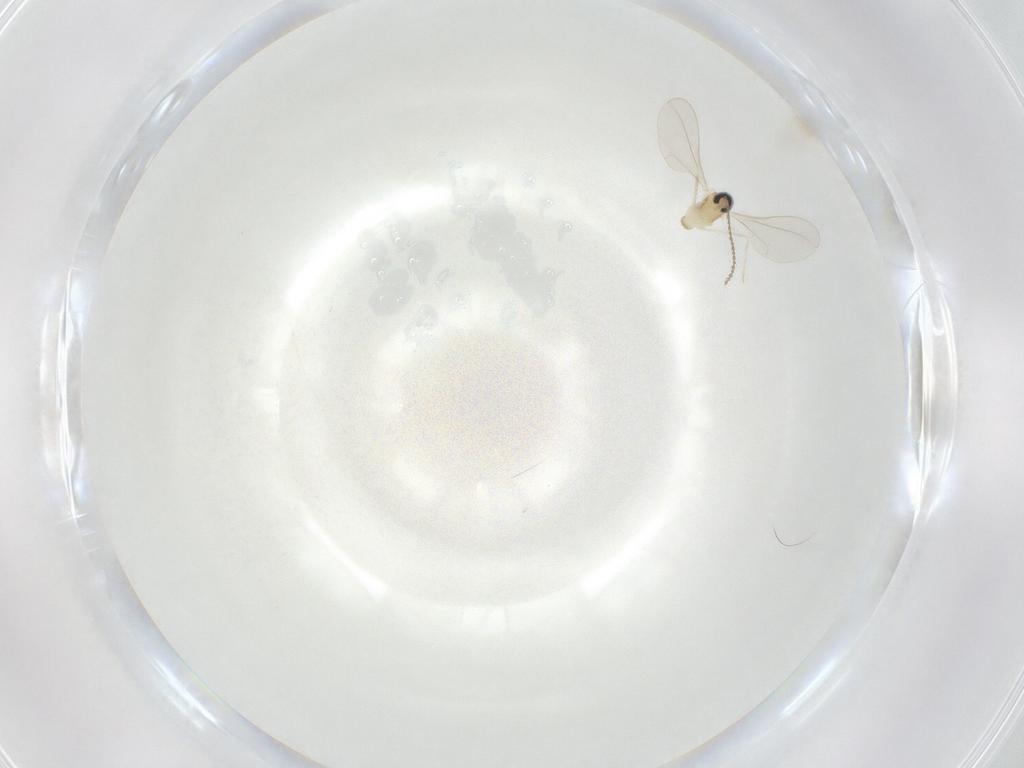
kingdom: Animalia
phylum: Arthropoda
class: Insecta
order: Diptera
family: Cecidomyiidae
